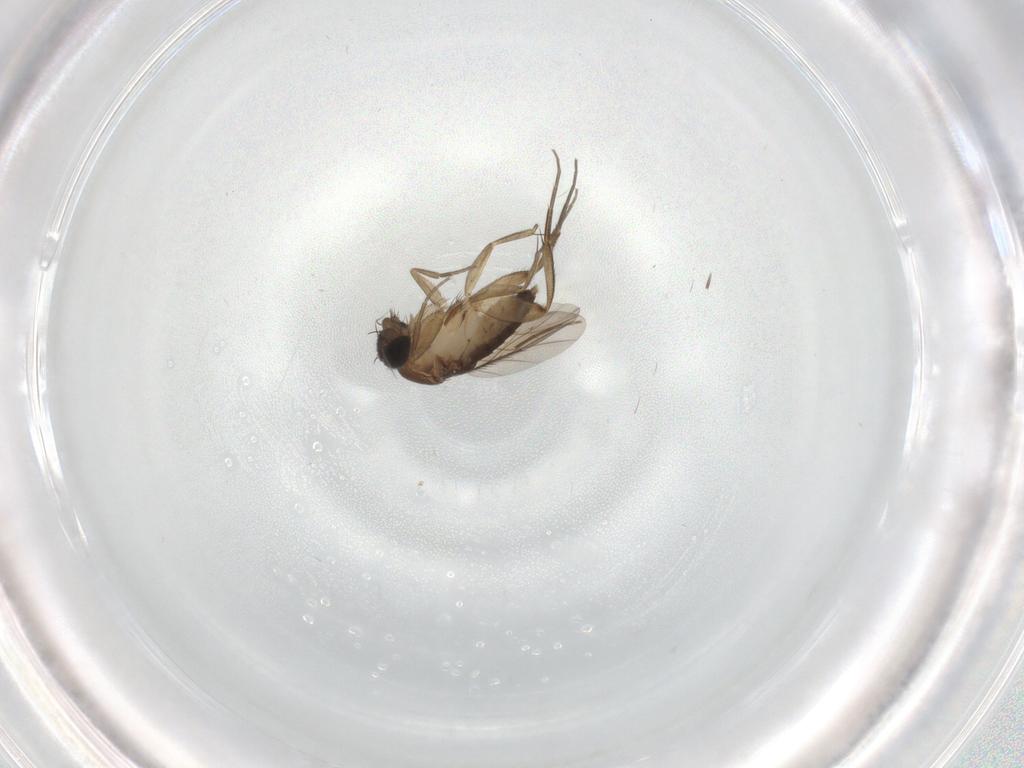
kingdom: Animalia
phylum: Arthropoda
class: Insecta
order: Diptera
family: Phoridae
